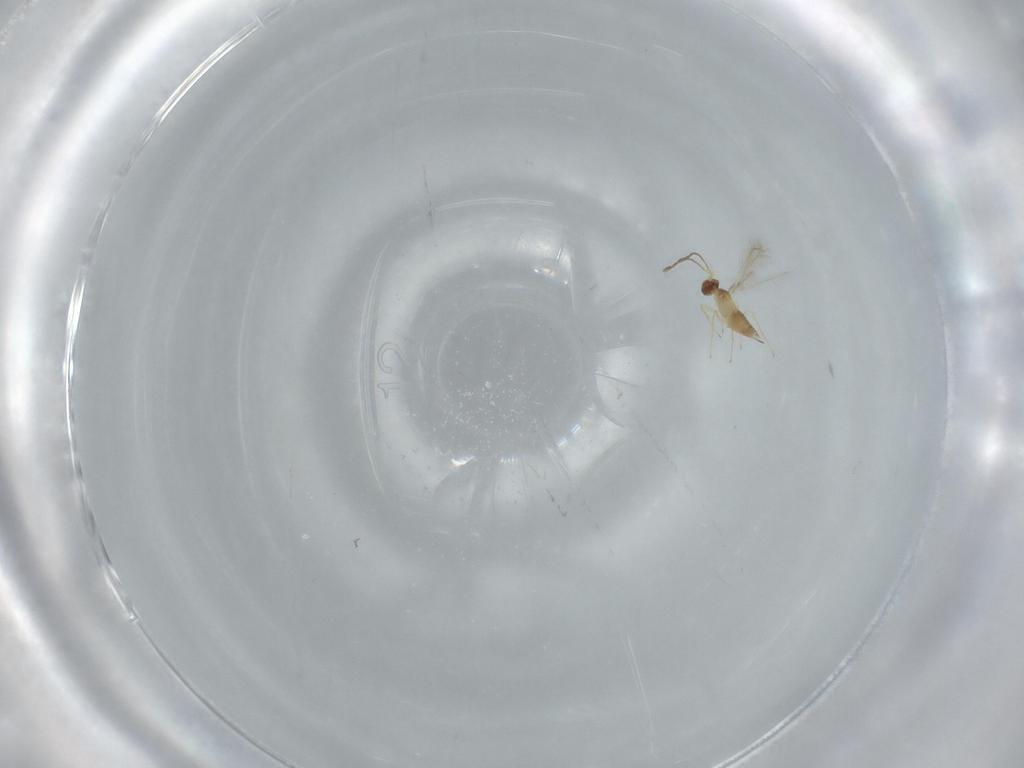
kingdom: Animalia
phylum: Arthropoda
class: Insecta
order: Hymenoptera
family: Mymaridae
